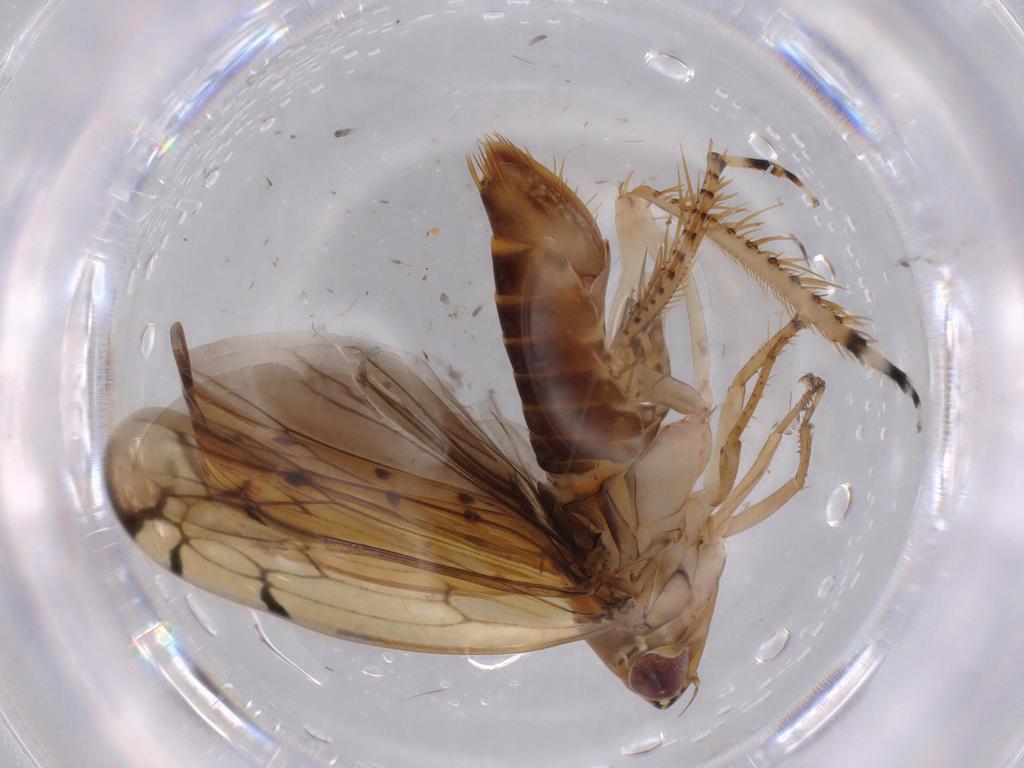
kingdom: Animalia
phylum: Arthropoda
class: Insecta
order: Hemiptera
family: Cicadellidae
